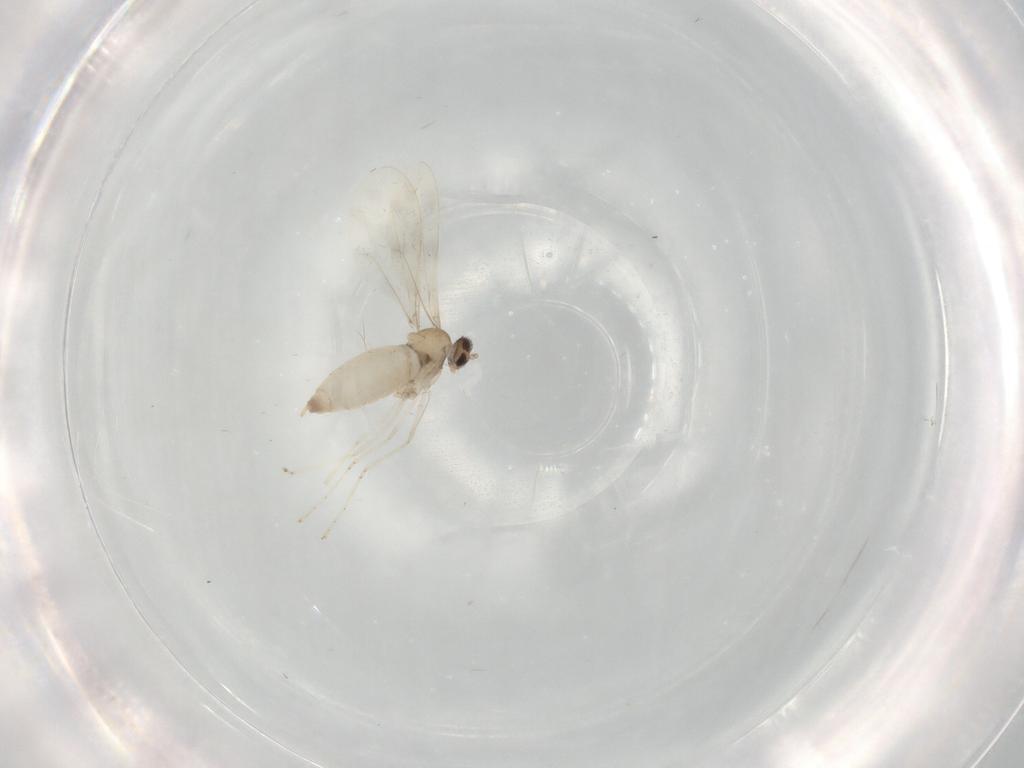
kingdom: Animalia
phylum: Arthropoda
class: Insecta
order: Diptera
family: Cecidomyiidae
